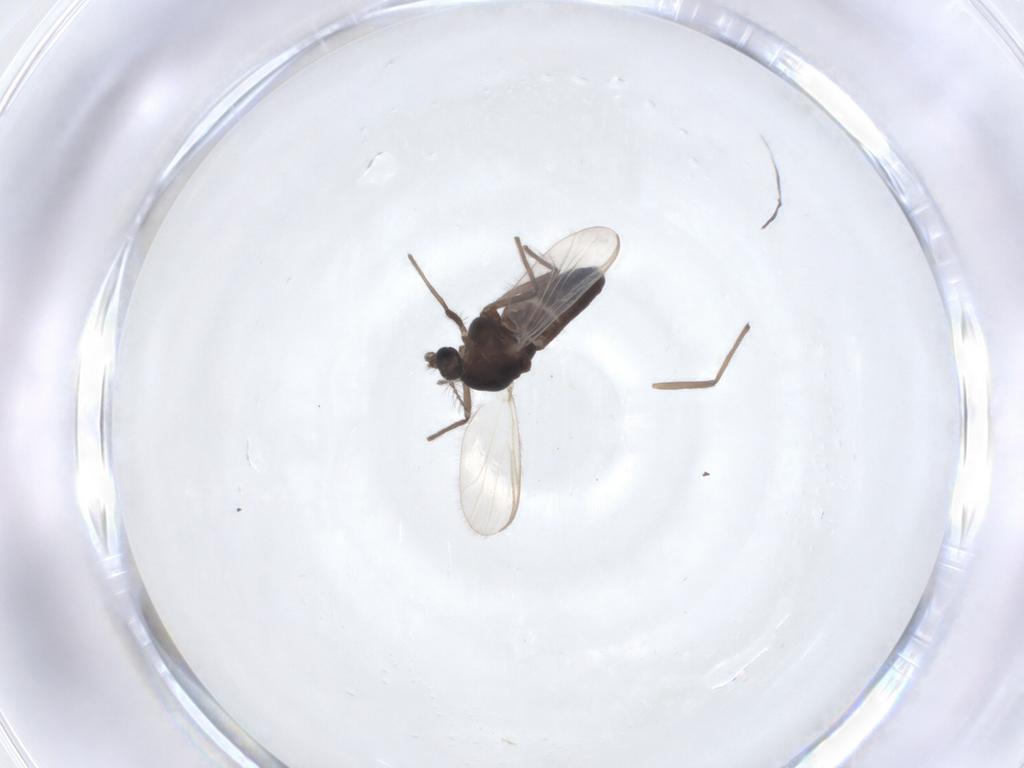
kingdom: Animalia
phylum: Arthropoda
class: Insecta
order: Diptera
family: Chironomidae
